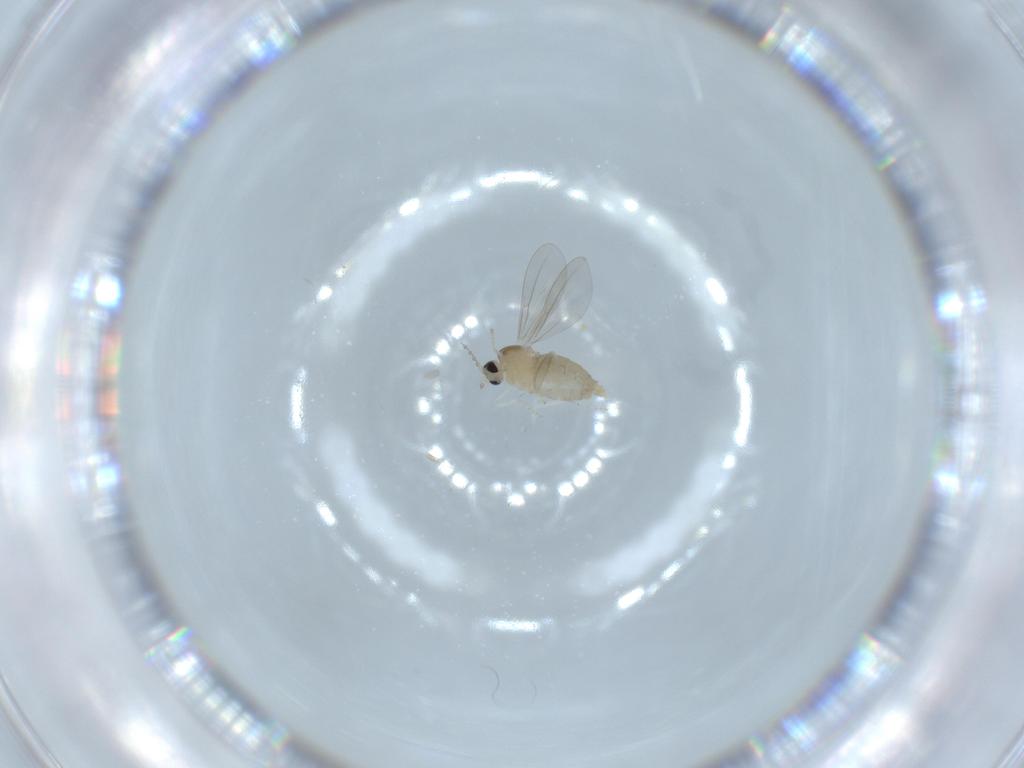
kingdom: Animalia
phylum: Arthropoda
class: Insecta
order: Diptera
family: Cecidomyiidae
